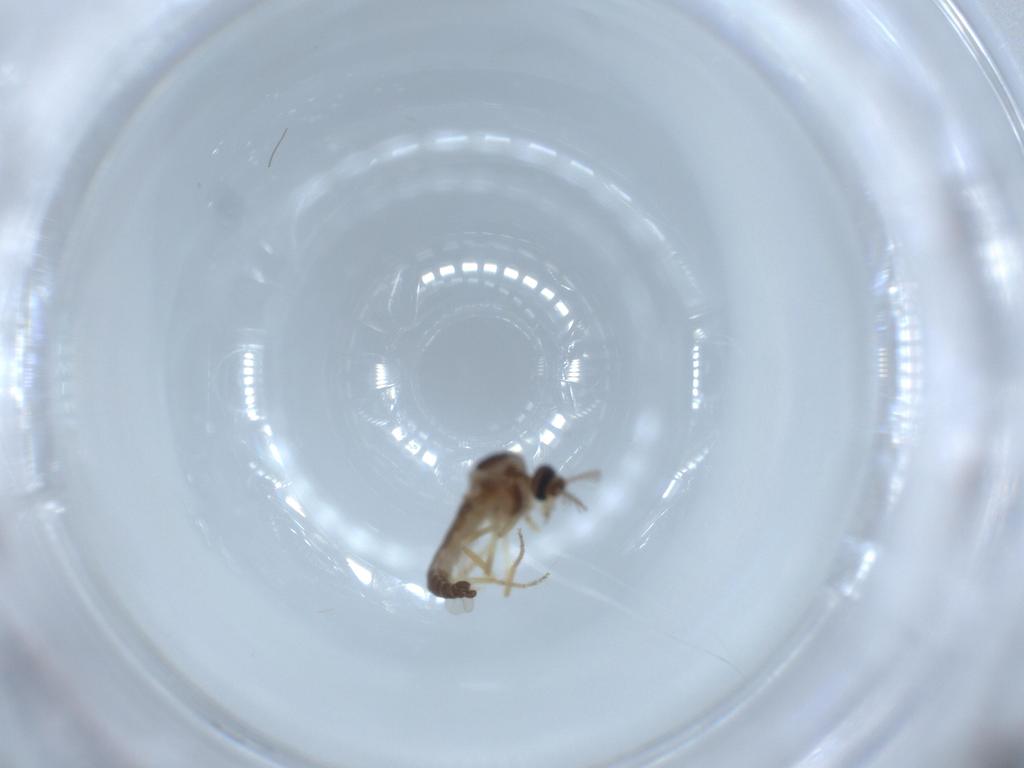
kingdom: Animalia
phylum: Arthropoda
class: Insecta
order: Diptera
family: Ceratopogonidae
